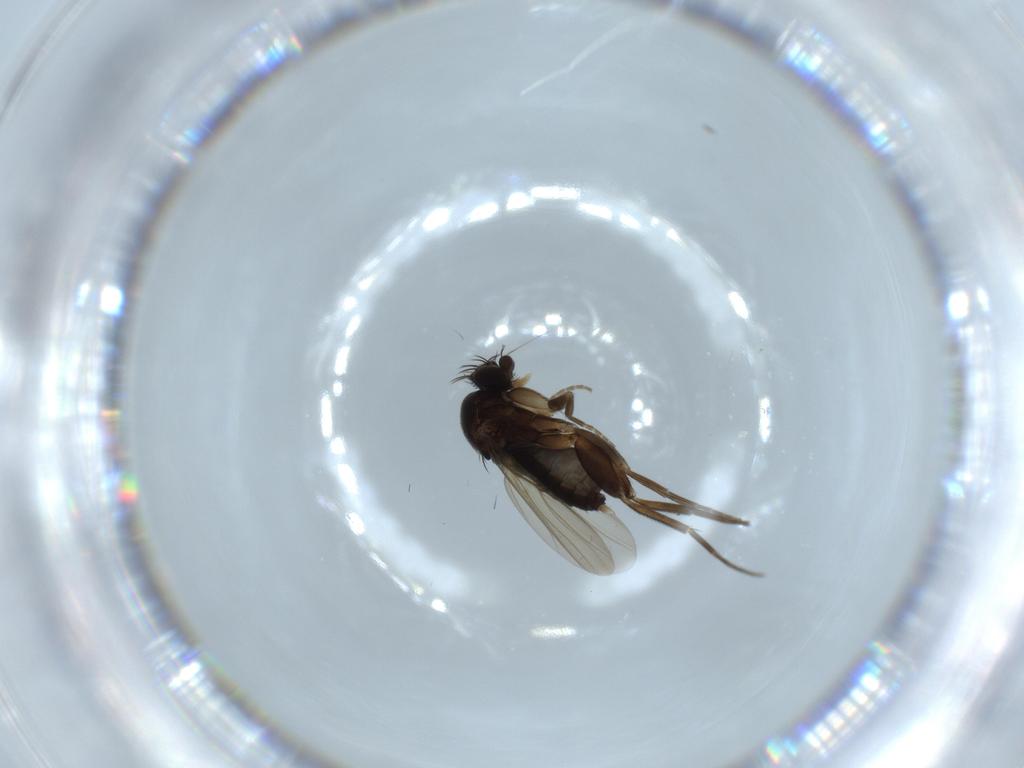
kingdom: Animalia
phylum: Arthropoda
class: Insecta
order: Diptera
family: Phoridae
